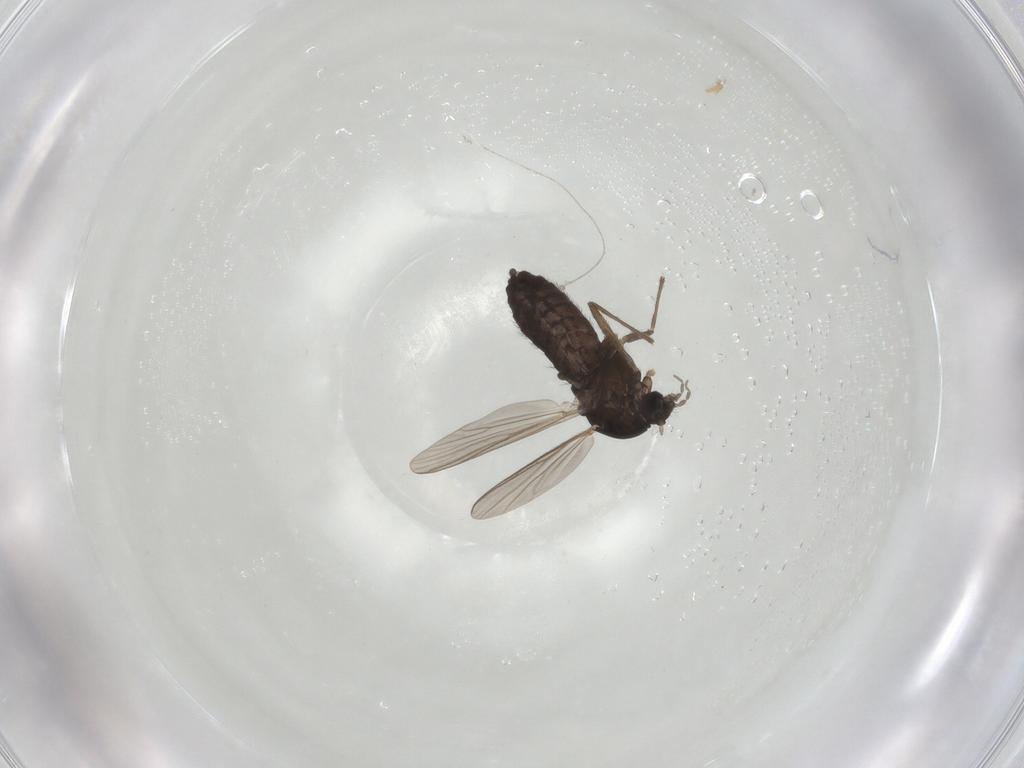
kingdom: Animalia
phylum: Arthropoda
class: Insecta
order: Diptera
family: Chironomidae
